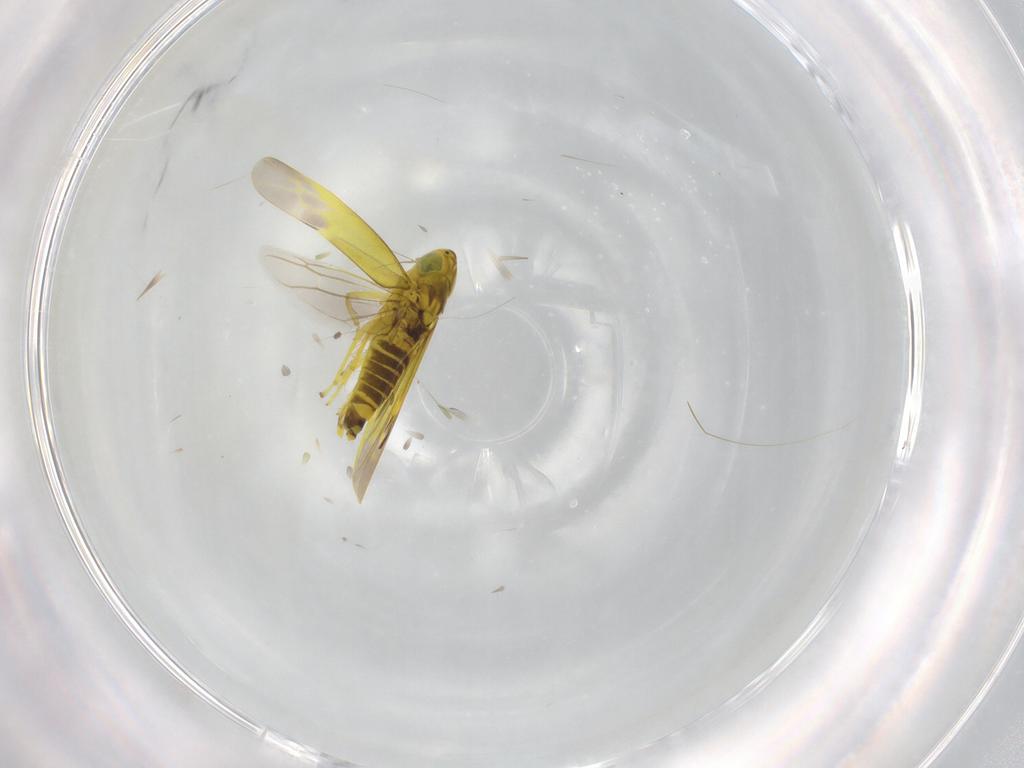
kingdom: Animalia
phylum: Arthropoda
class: Insecta
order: Hemiptera
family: Cicadellidae
